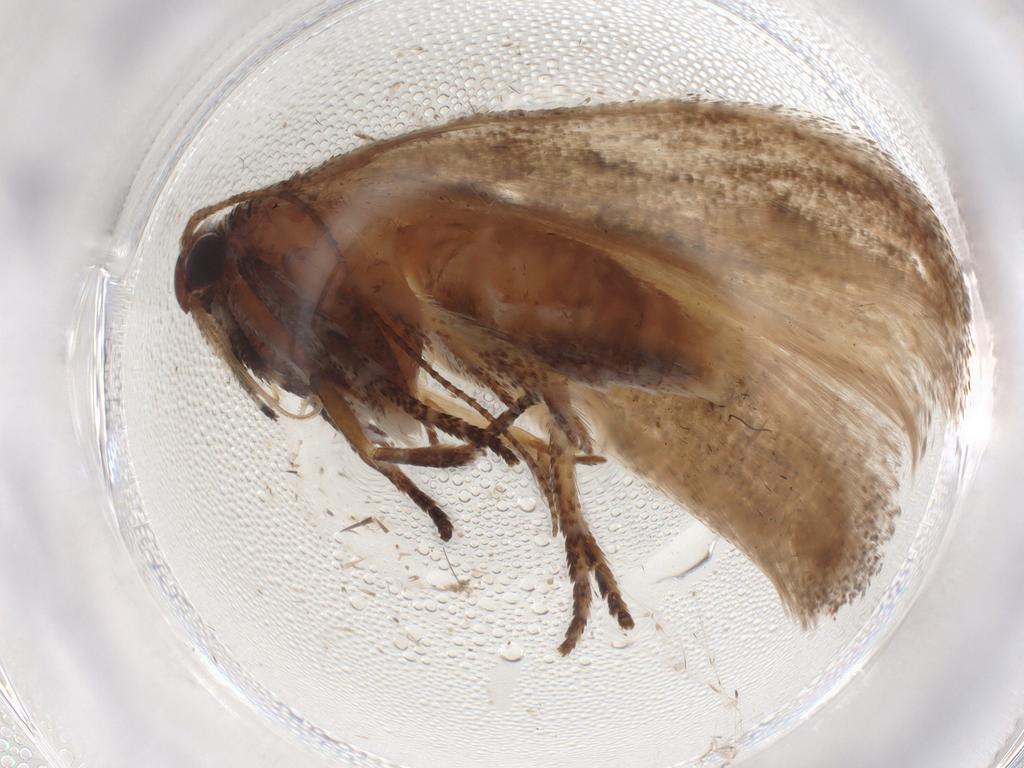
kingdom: Animalia
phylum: Arthropoda
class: Insecta
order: Lepidoptera
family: Cosmopterigidae
